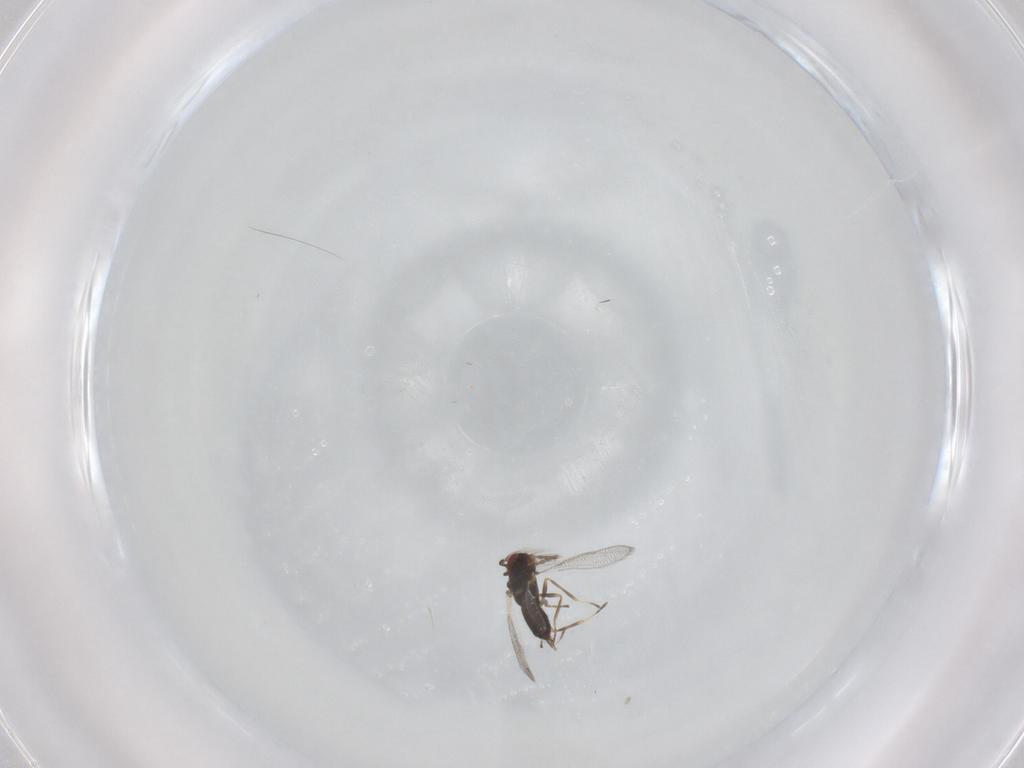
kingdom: Animalia
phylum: Arthropoda
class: Insecta
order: Hymenoptera
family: Eulophidae
